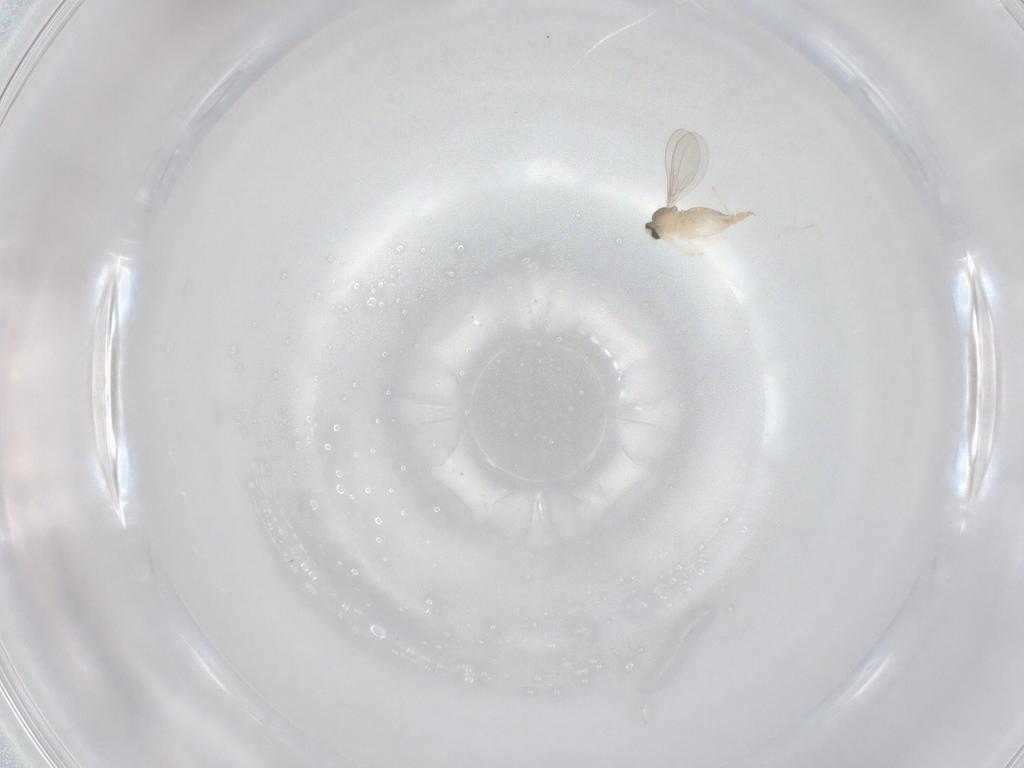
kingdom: Animalia
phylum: Arthropoda
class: Insecta
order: Diptera
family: Cecidomyiidae
